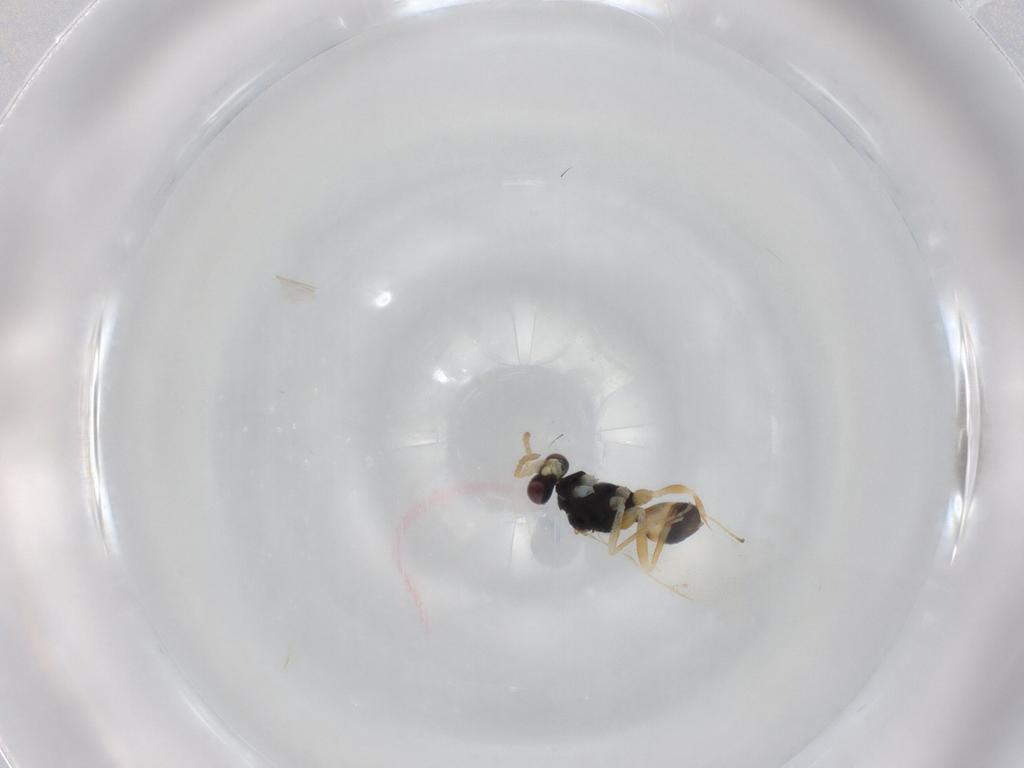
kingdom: Animalia
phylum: Arthropoda
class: Insecta
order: Hymenoptera
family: Eulophidae
